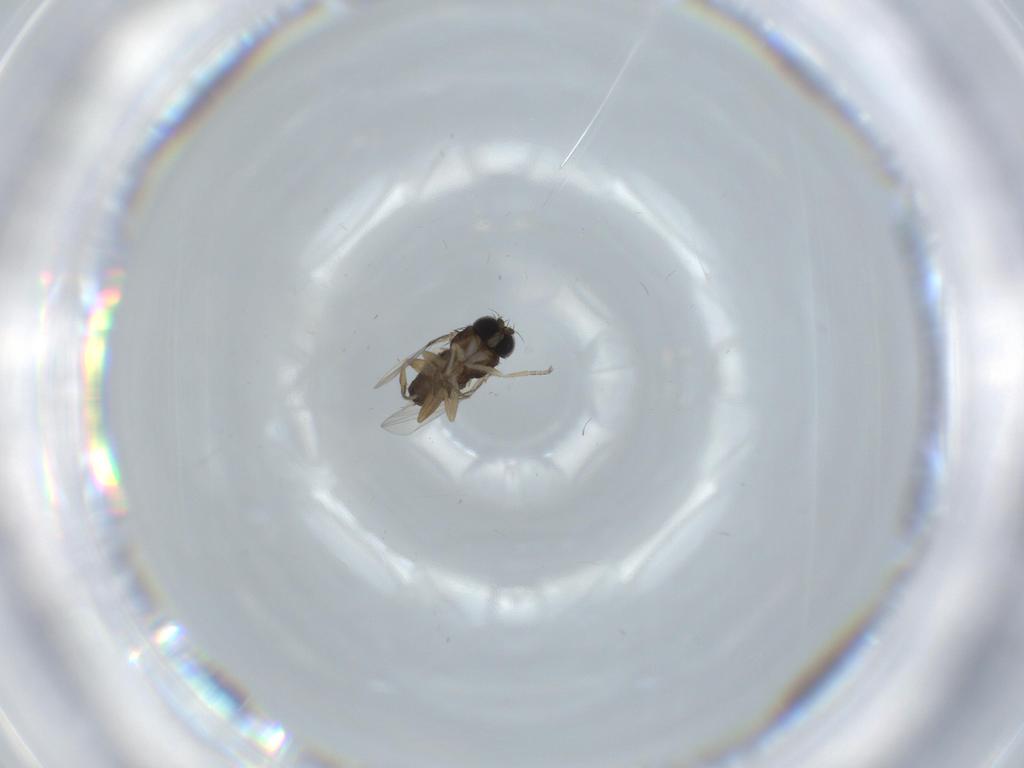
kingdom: Animalia
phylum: Arthropoda
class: Insecta
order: Diptera
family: Sciaridae
